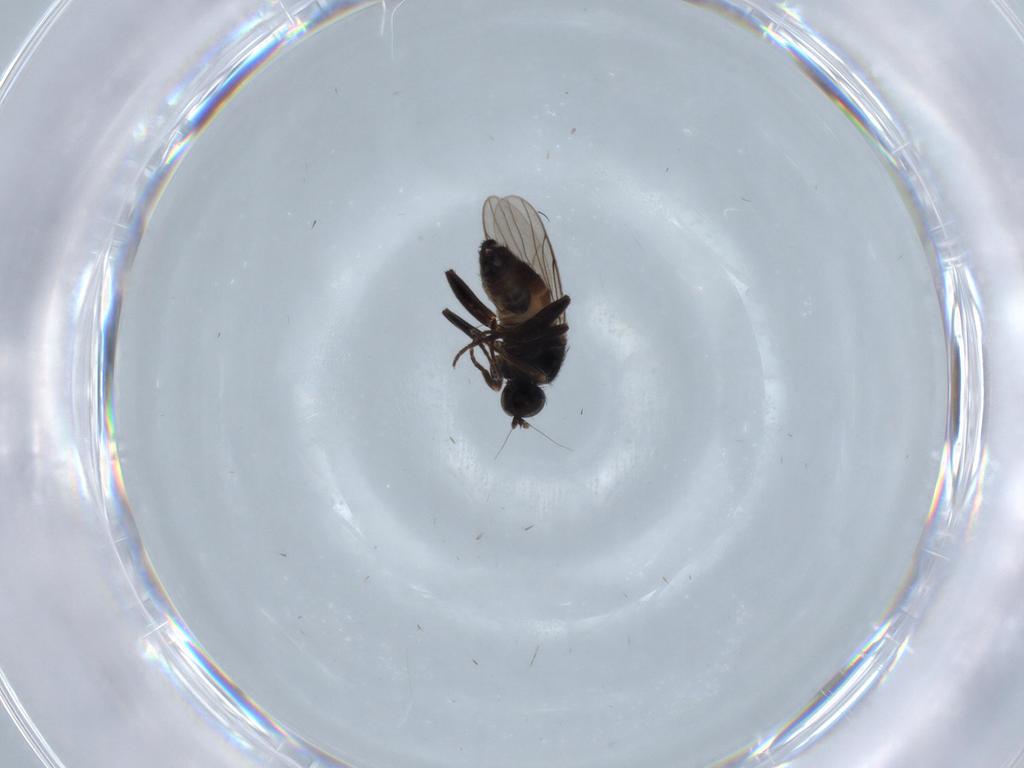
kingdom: Animalia
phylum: Arthropoda
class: Insecta
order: Diptera
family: Sciaridae
